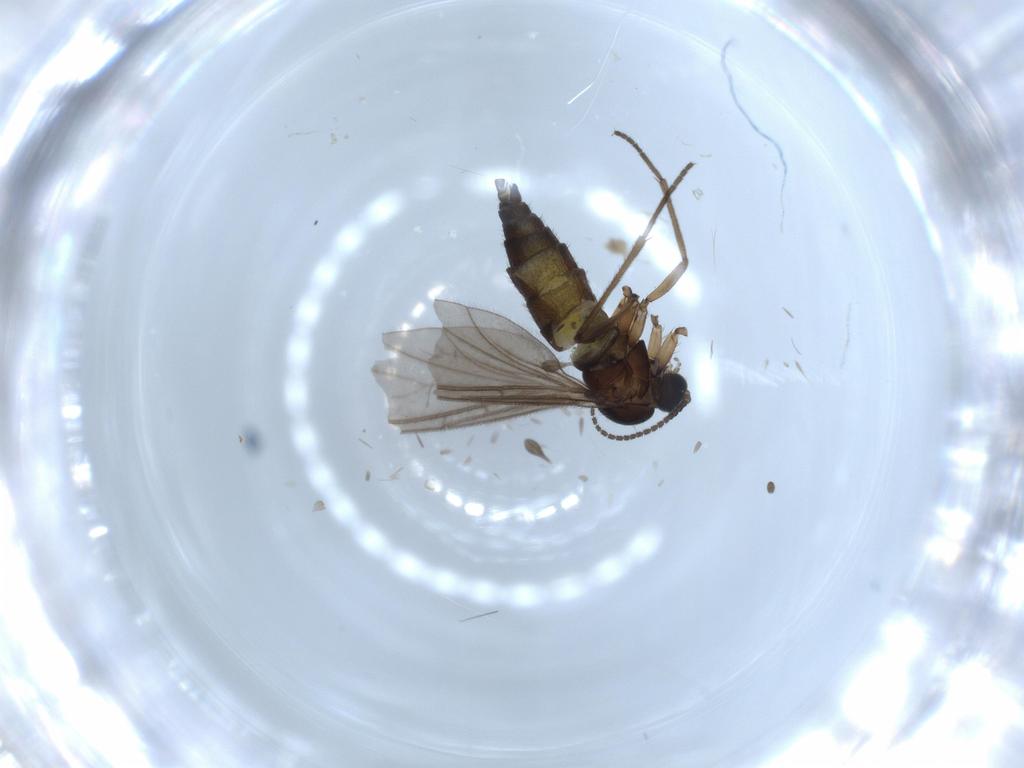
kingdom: Animalia
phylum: Arthropoda
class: Insecta
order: Diptera
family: Sciaridae
